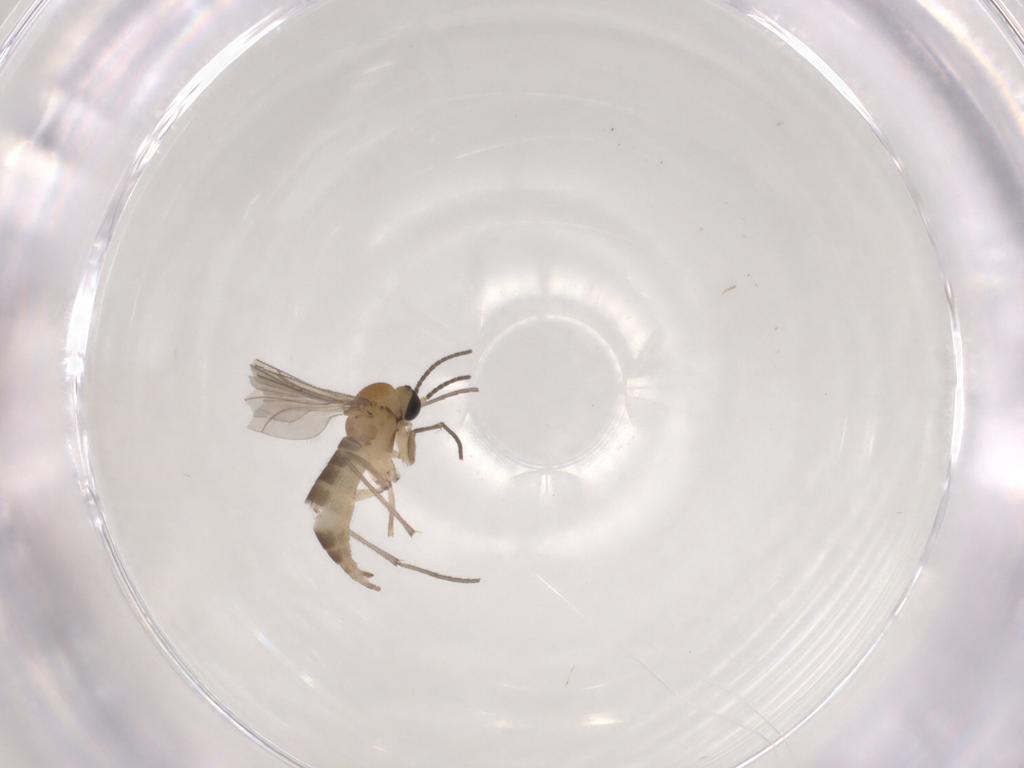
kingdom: Animalia
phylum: Arthropoda
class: Insecta
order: Diptera
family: Sciaridae
